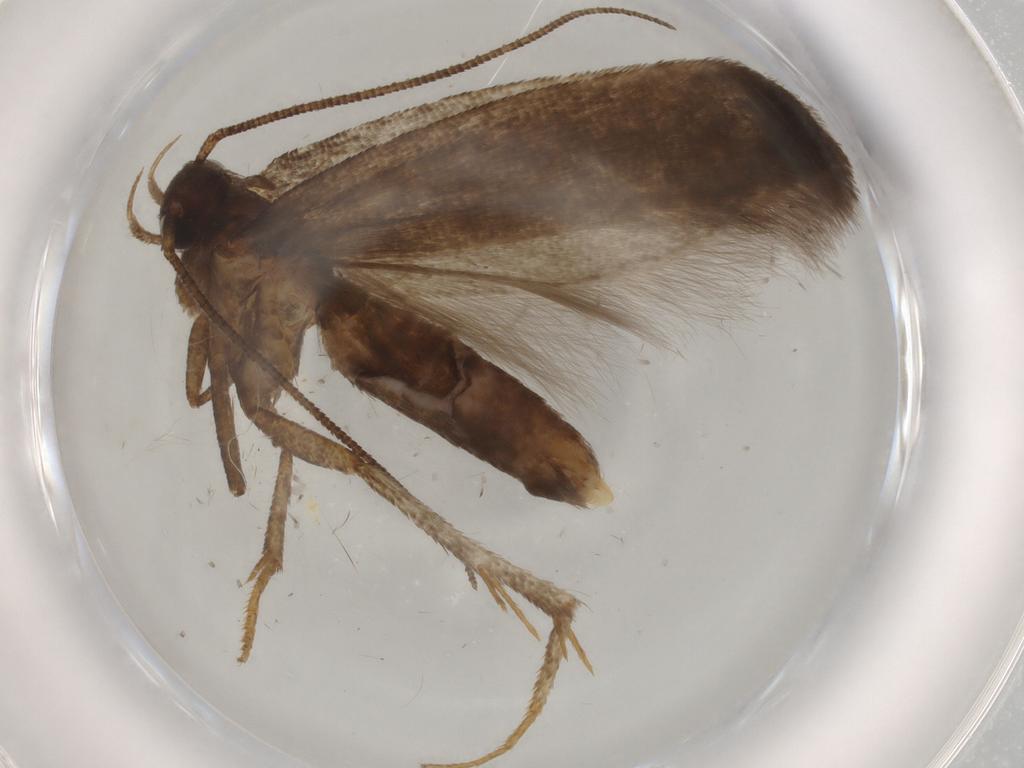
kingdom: Animalia
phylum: Arthropoda
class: Insecta
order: Lepidoptera
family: Gelechiidae
